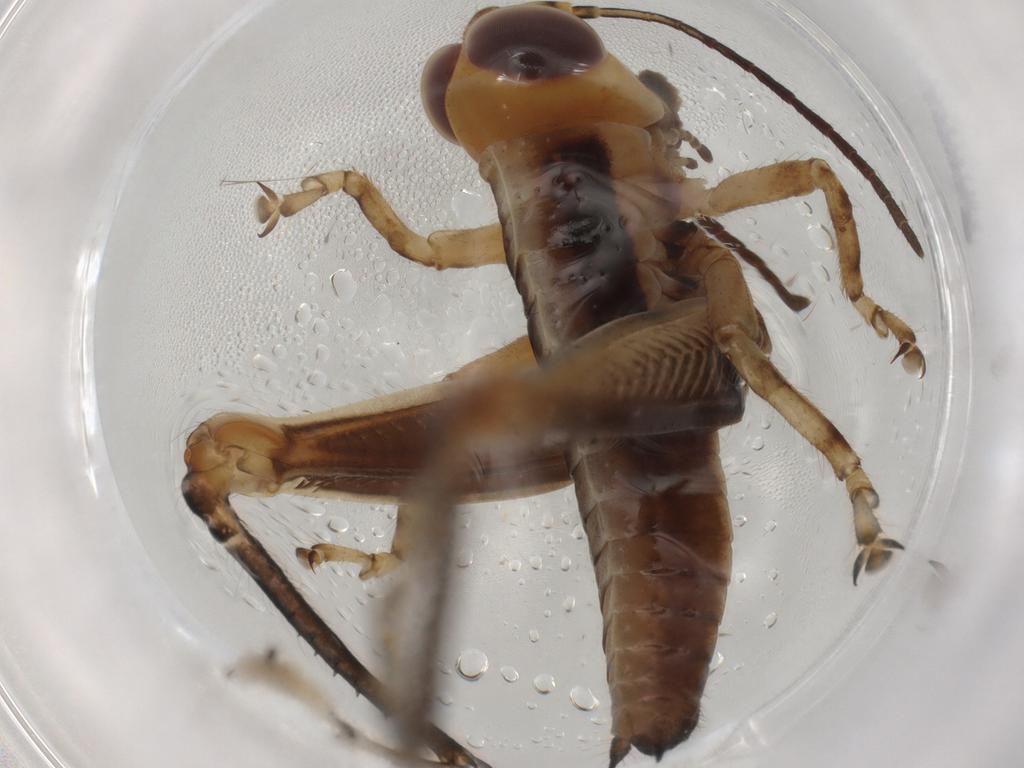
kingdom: Animalia
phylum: Arthropoda
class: Insecta
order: Orthoptera
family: Acrididae
